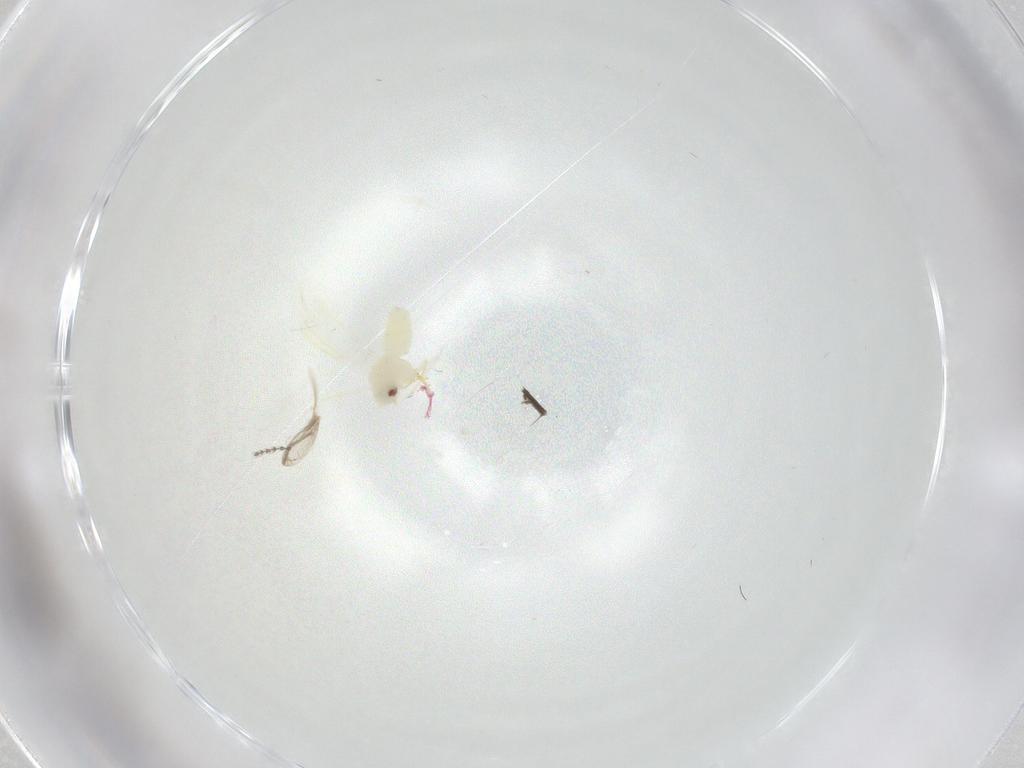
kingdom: Animalia
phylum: Arthropoda
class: Insecta
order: Hemiptera
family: Aleyrodidae
